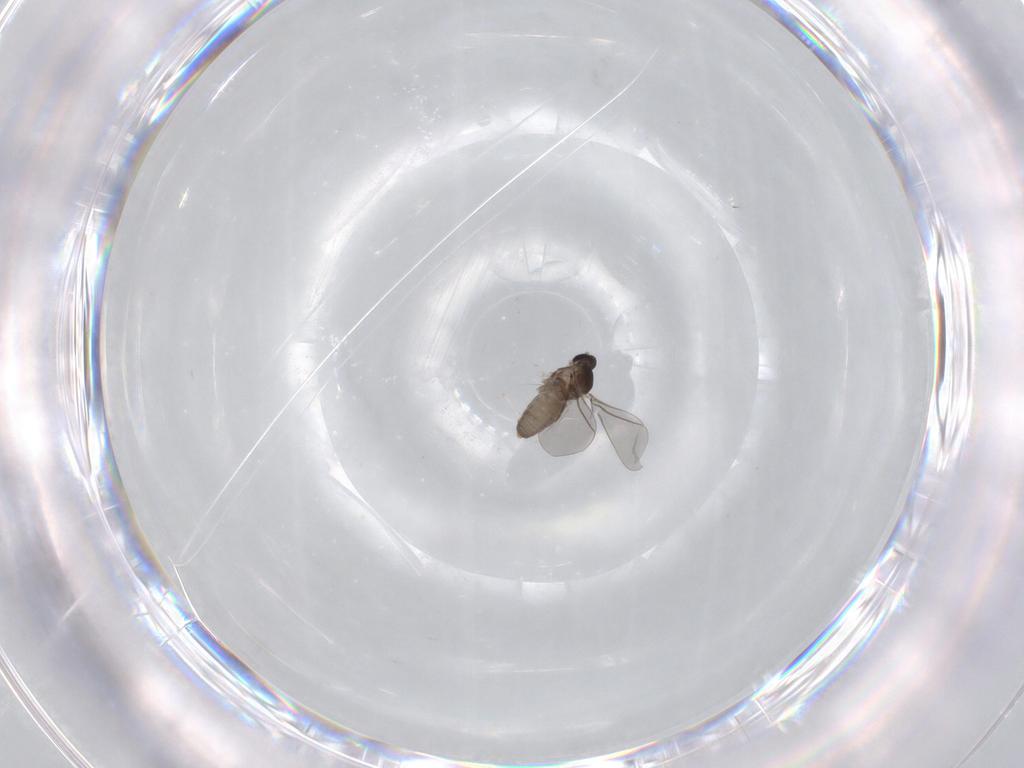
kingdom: Animalia
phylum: Arthropoda
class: Insecta
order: Diptera
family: Cecidomyiidae
